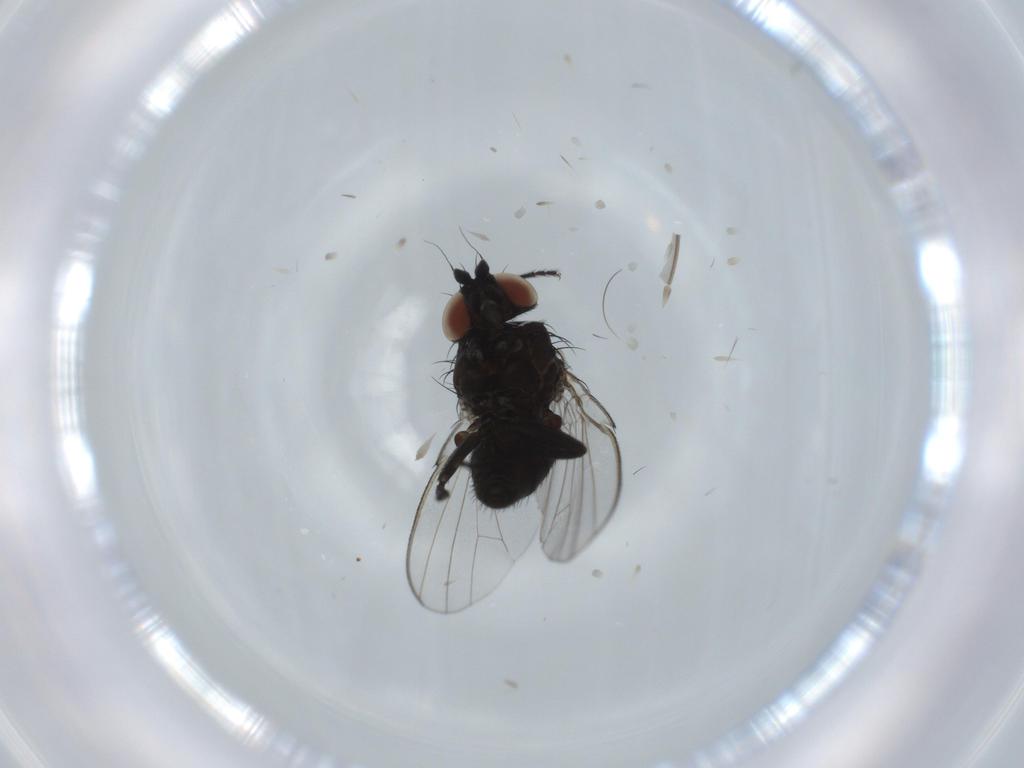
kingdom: Animalia
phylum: Arthropoda
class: Insecta
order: Diptera
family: Milichiidae
